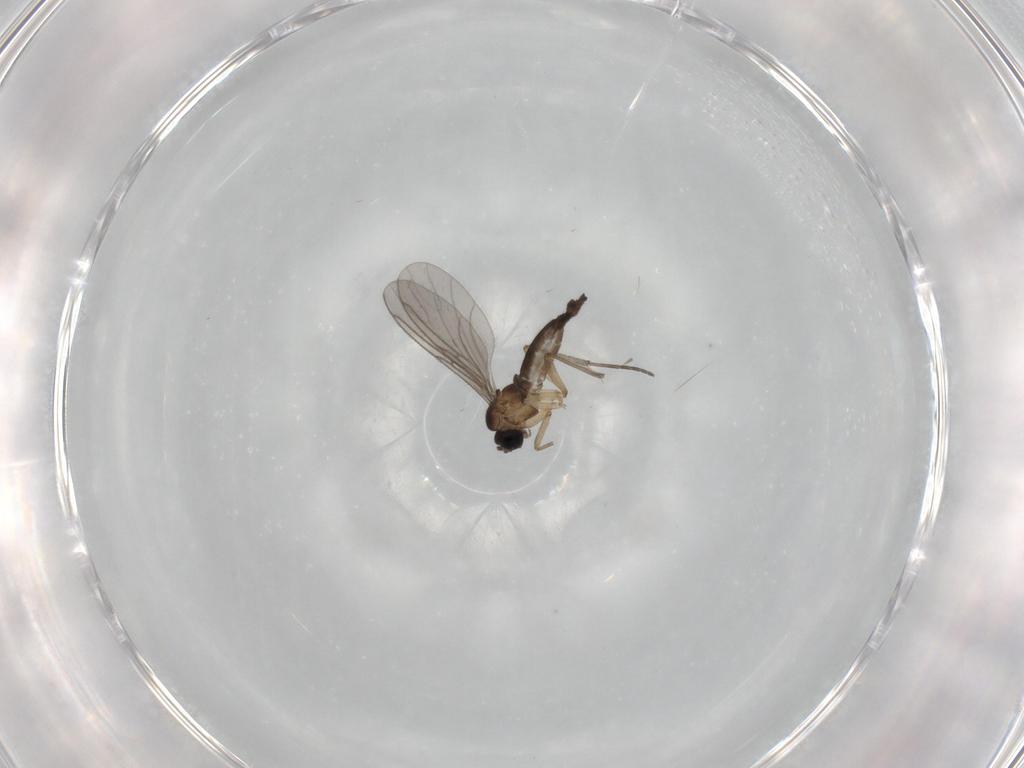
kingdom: Animalia
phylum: Arthropoda
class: Insecta
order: Diptera
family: Sciaridae
